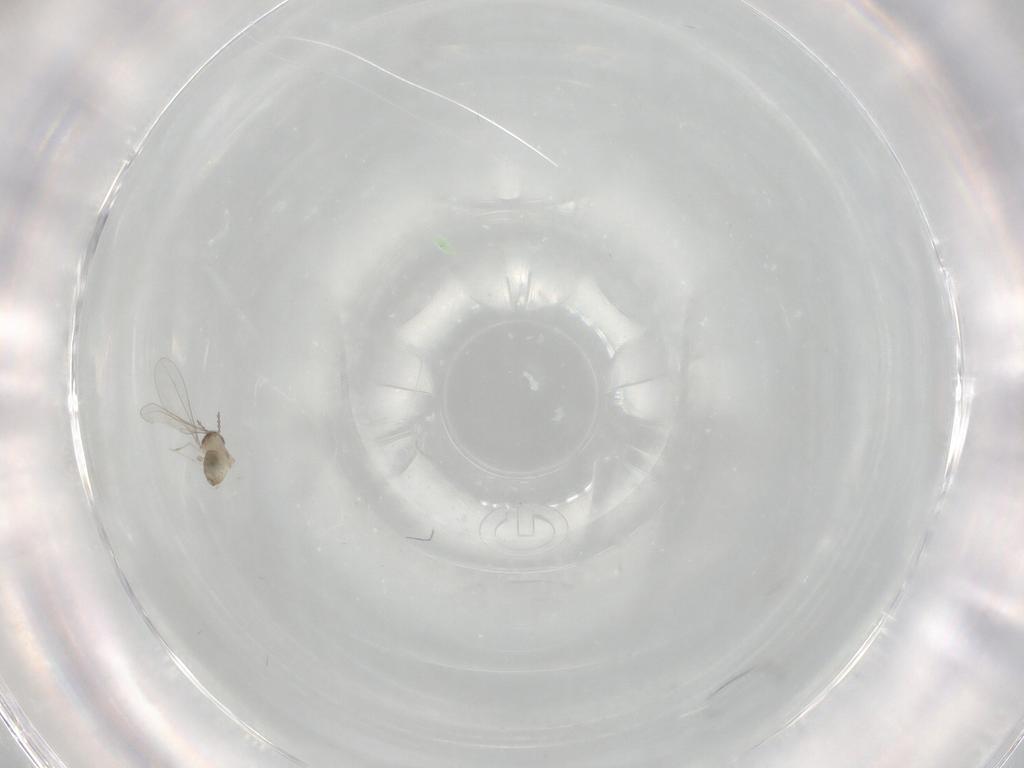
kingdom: Animalia
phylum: Arthropoda
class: Insecta
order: Diptera
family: Cecidomyiidae
